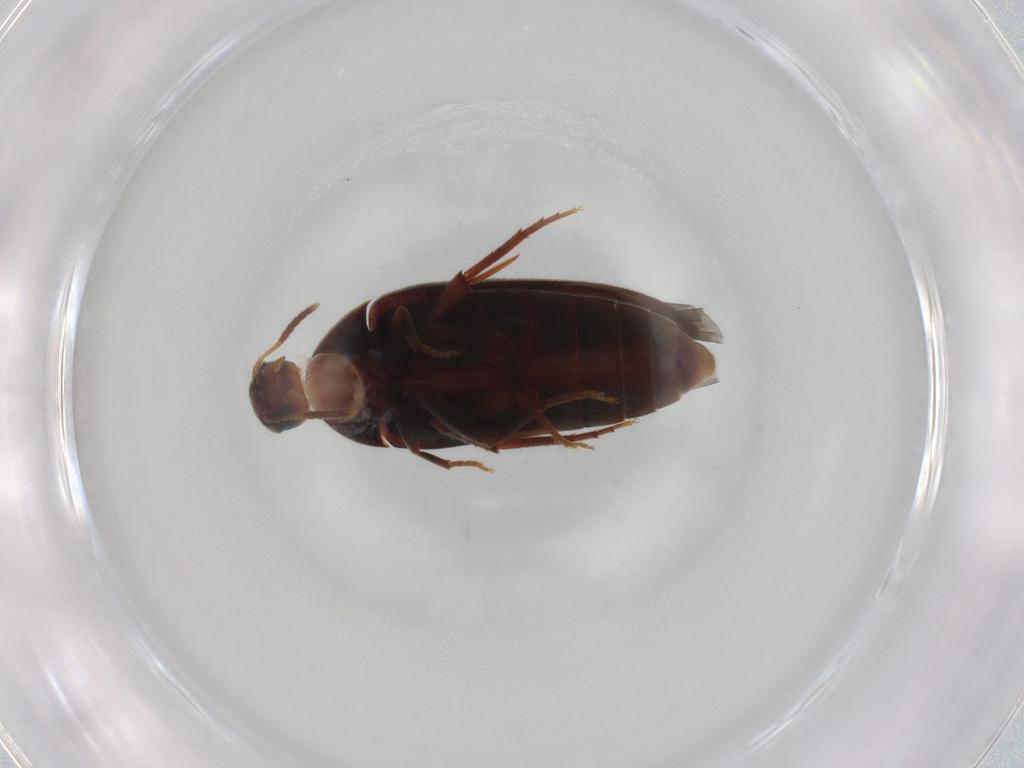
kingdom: Animalia
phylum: Arthropoda
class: Insecta
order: Coleoptera
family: Melandryidae
